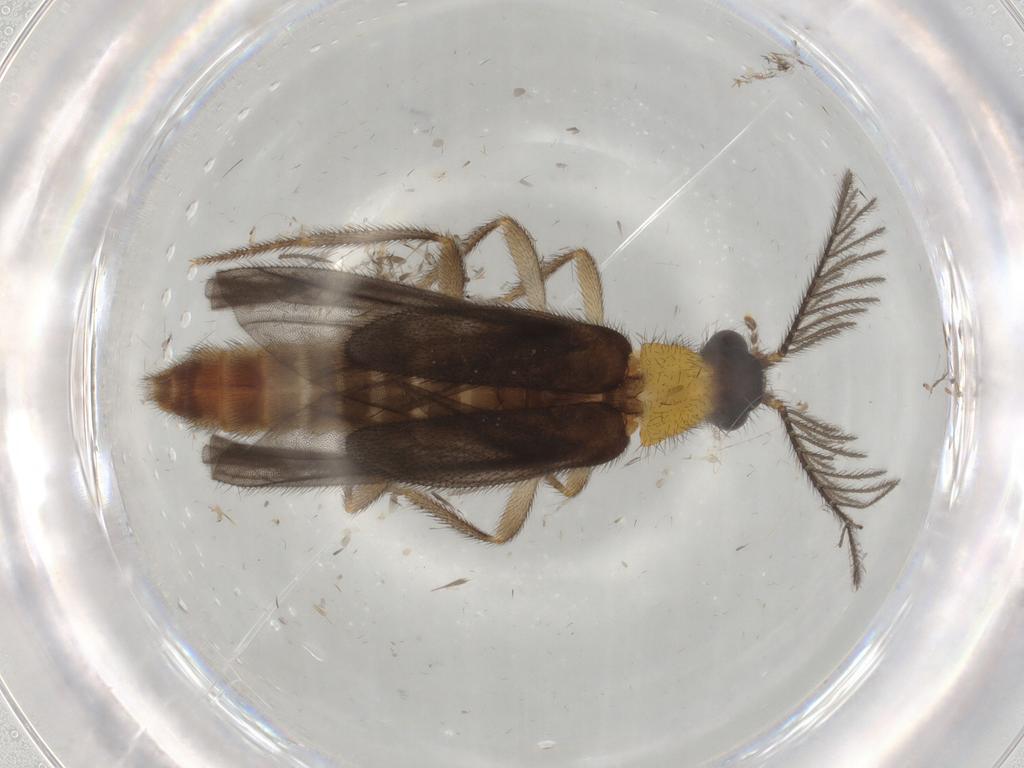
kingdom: Animalia
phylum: Arthropoda
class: Insecta
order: Coleoptera
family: Phengodidae
